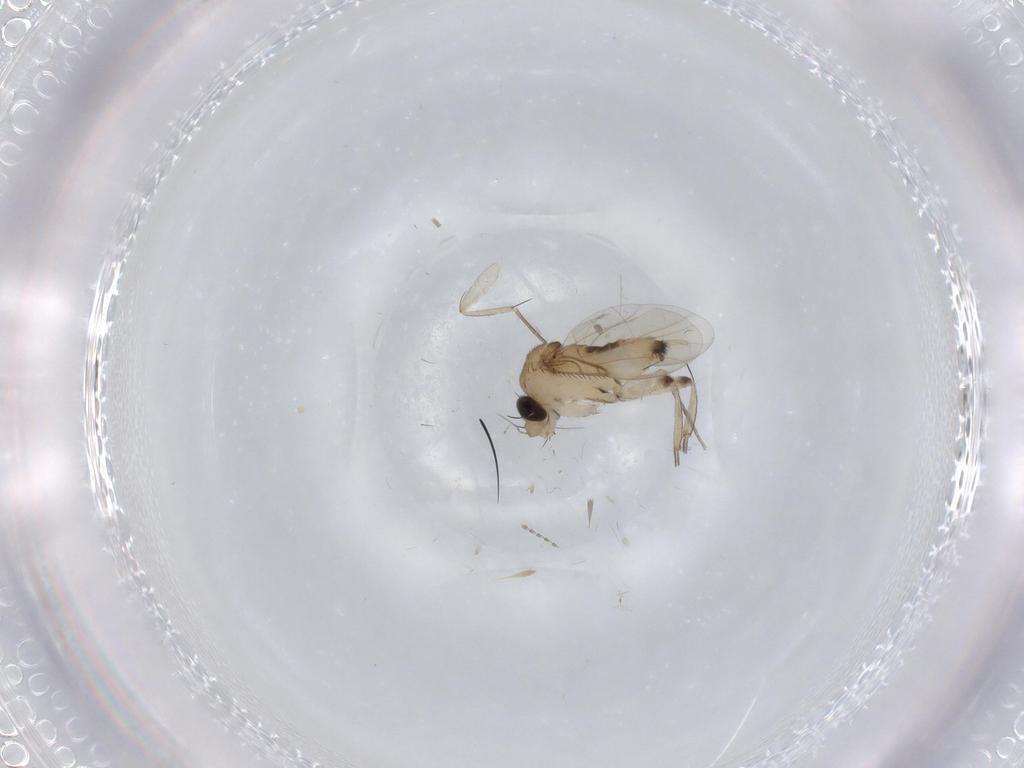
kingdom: Animalia
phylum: Arthropoda
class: Insecta
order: Diptera
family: Phoridae
